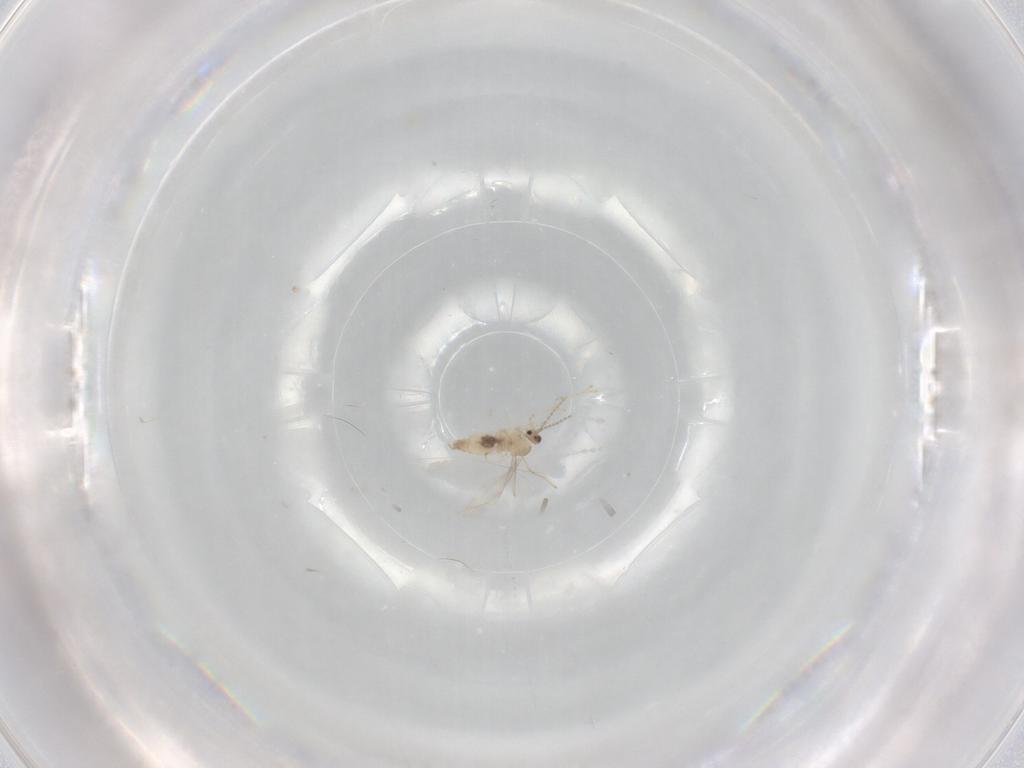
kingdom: Animalia
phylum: Arthropoda
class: Insecta
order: Diptera
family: Cecidomyiidae
